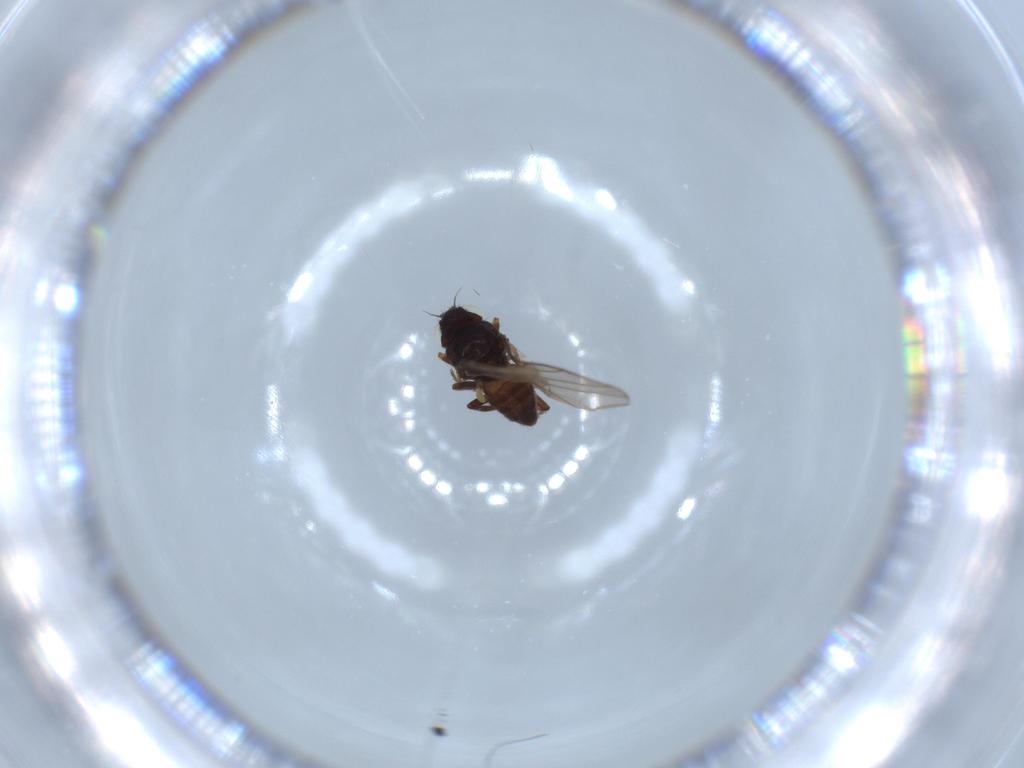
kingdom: Animalia
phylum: Arthropoda
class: Insecta
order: Diptera
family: Chloropidae
